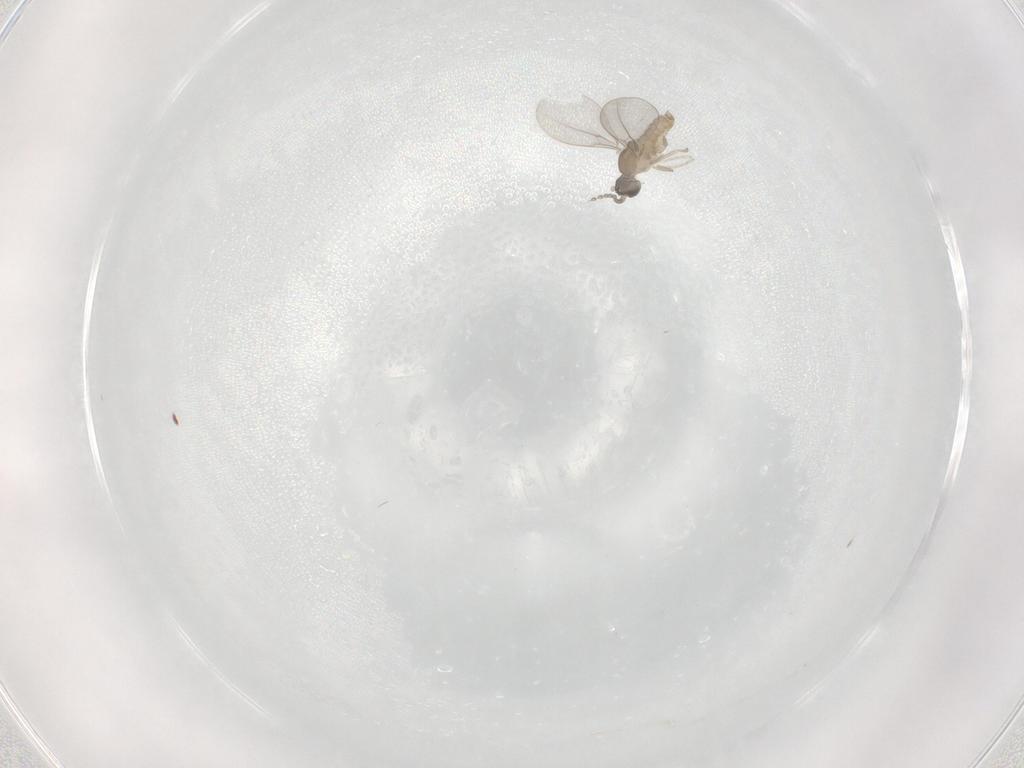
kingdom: Animalia
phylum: Arthropoda
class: Insecta
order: Diptera
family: Cecidomyiidae
